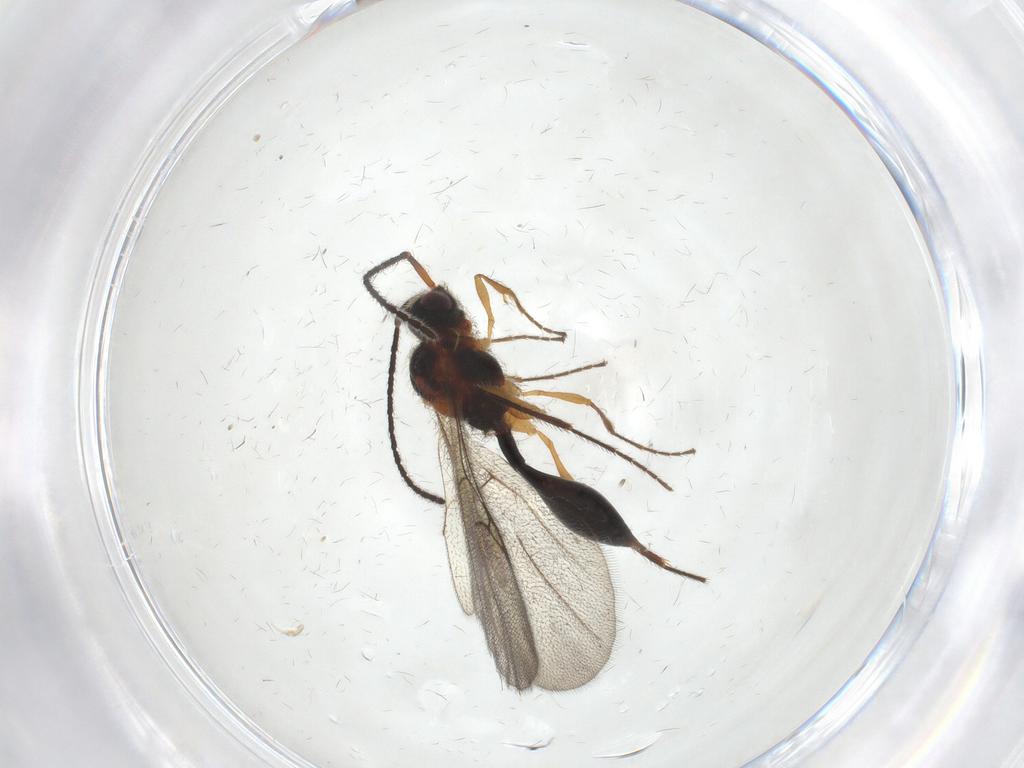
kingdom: Animalia
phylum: Arthropoda
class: Insecta
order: Hymenoptera
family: Diapriidae
